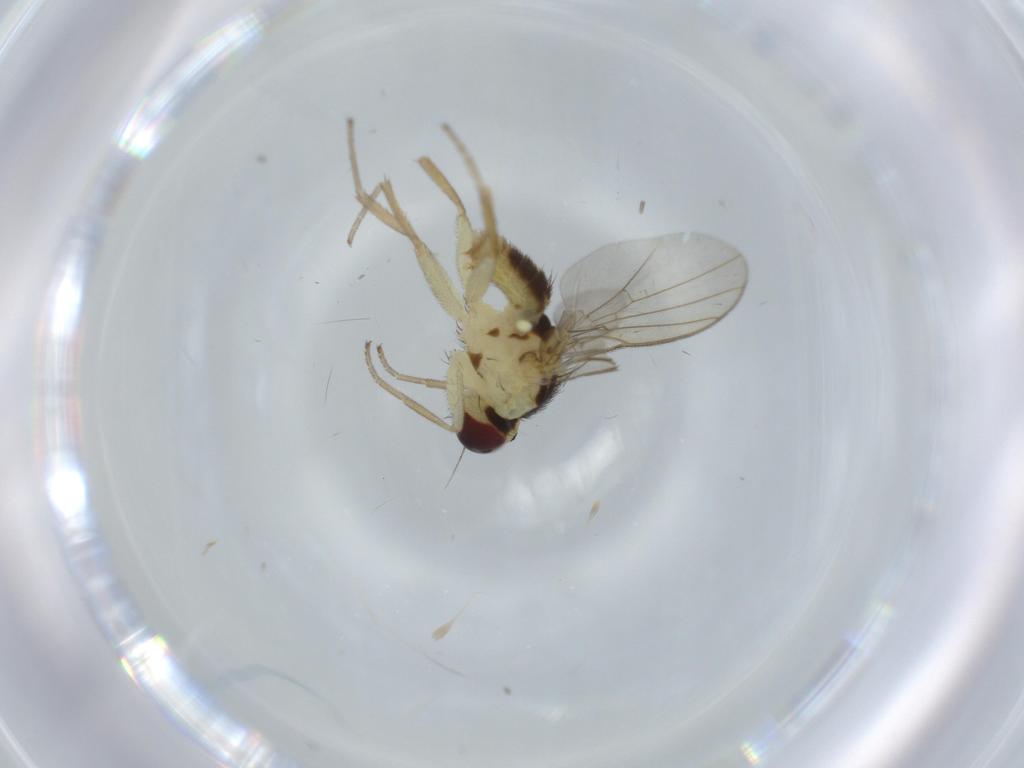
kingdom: Animalia
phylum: Arthropoda
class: Insecta
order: Diptera
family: Agromyzidae
